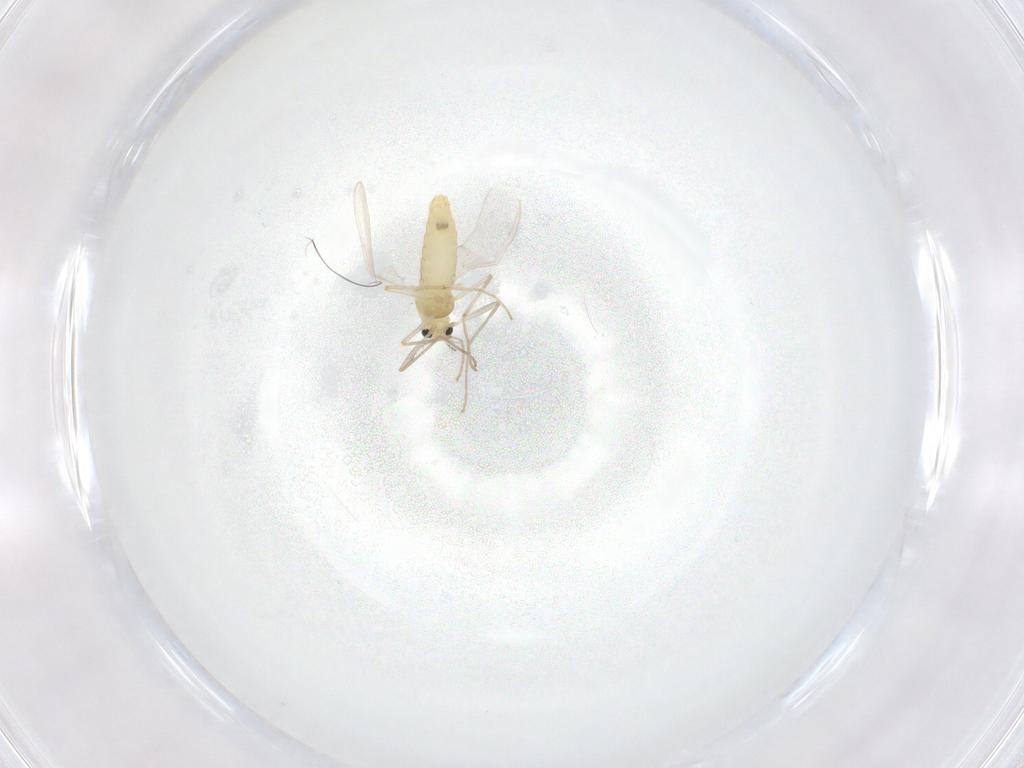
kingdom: Animalia
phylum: Arthropoda
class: Insecta
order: Diptera
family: Chironomidae
